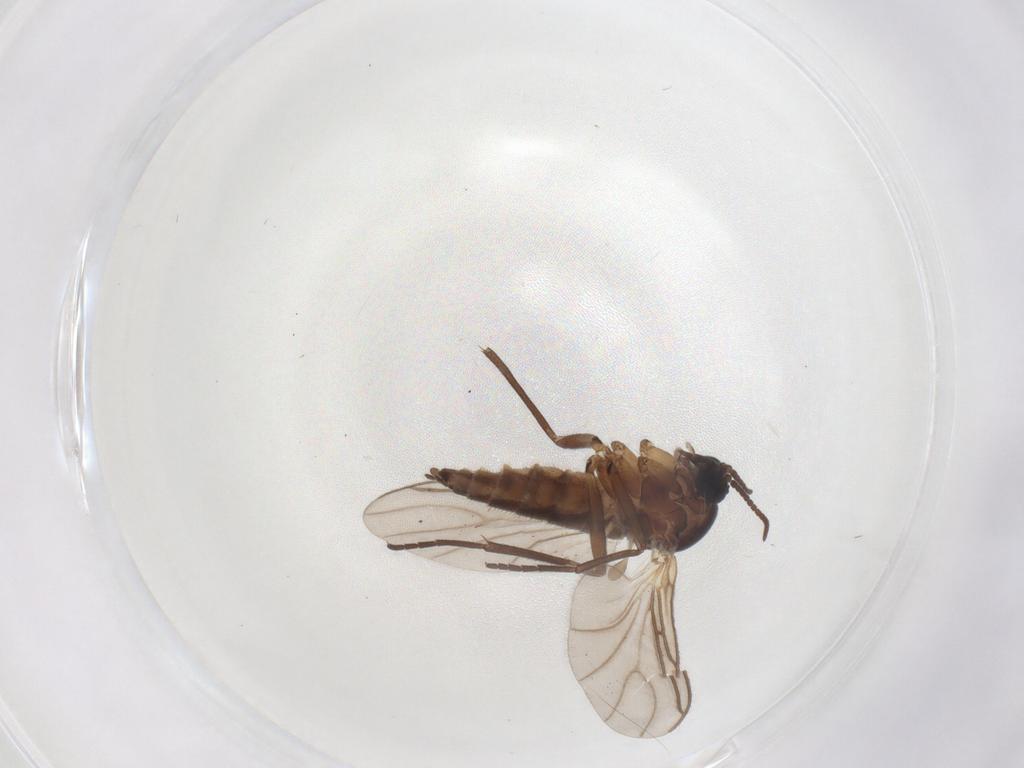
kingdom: Animalia
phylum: Arthropoda
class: Insecta
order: Diptera
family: Sciaridae
